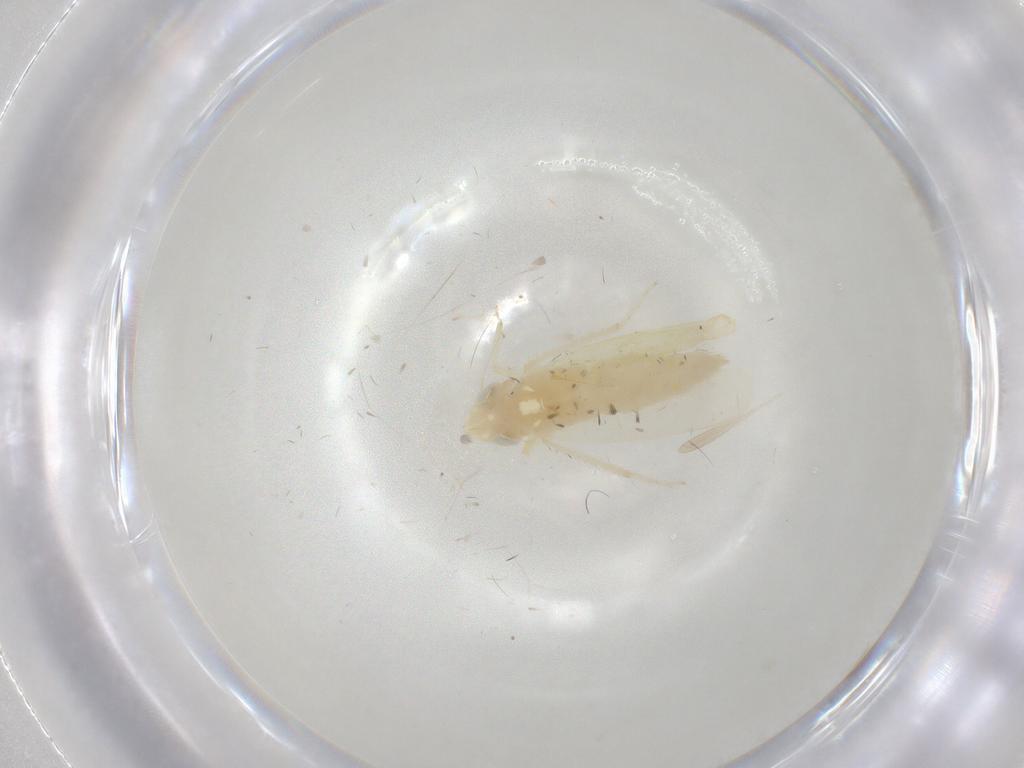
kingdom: Animalia
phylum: Arthropoda
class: Insecta
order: Hemiptera
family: Cicadellidae
